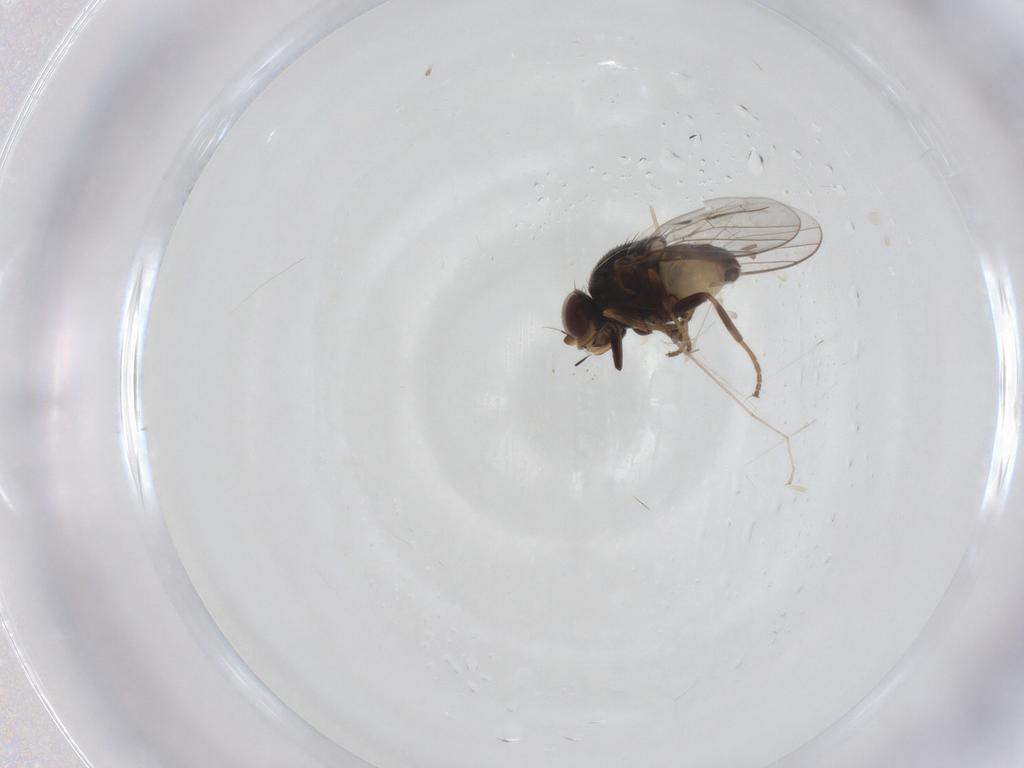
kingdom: Animalia
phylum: Arthropoda
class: Insecta
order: Diptera
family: Chloropidae
